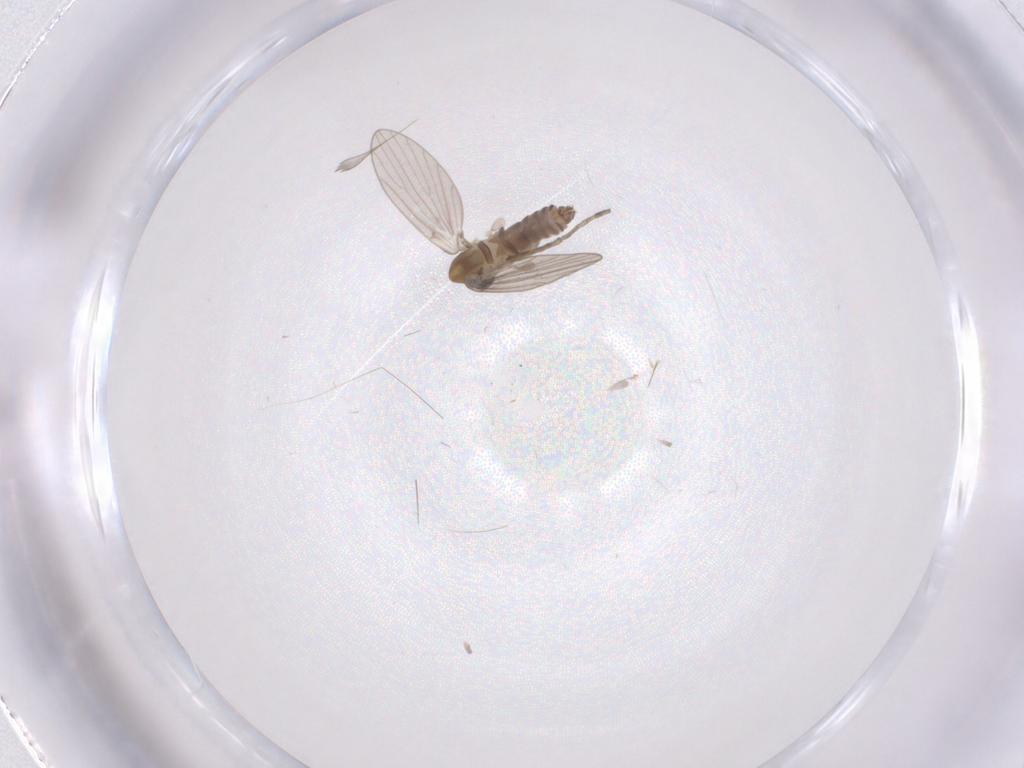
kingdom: Animalia
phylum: Arthropoda
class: Insecta
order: Diptera
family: Psychodidae
